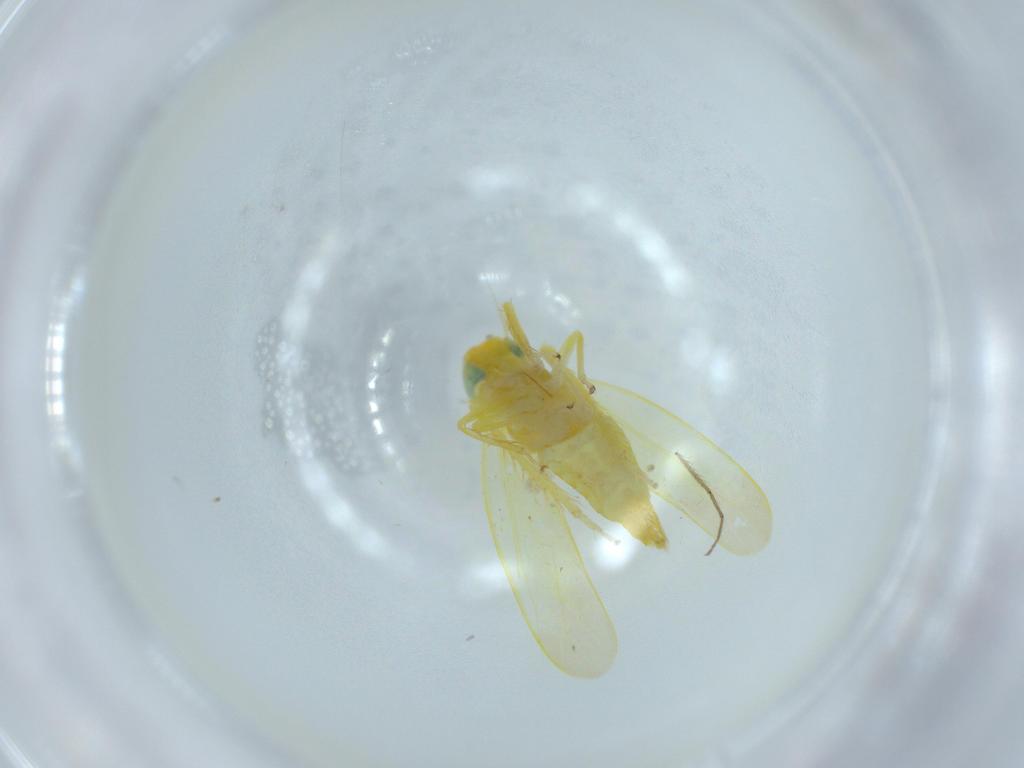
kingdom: Animalia
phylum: Arthropoda
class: Insecta
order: Hemiptera
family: Cicadellidae
